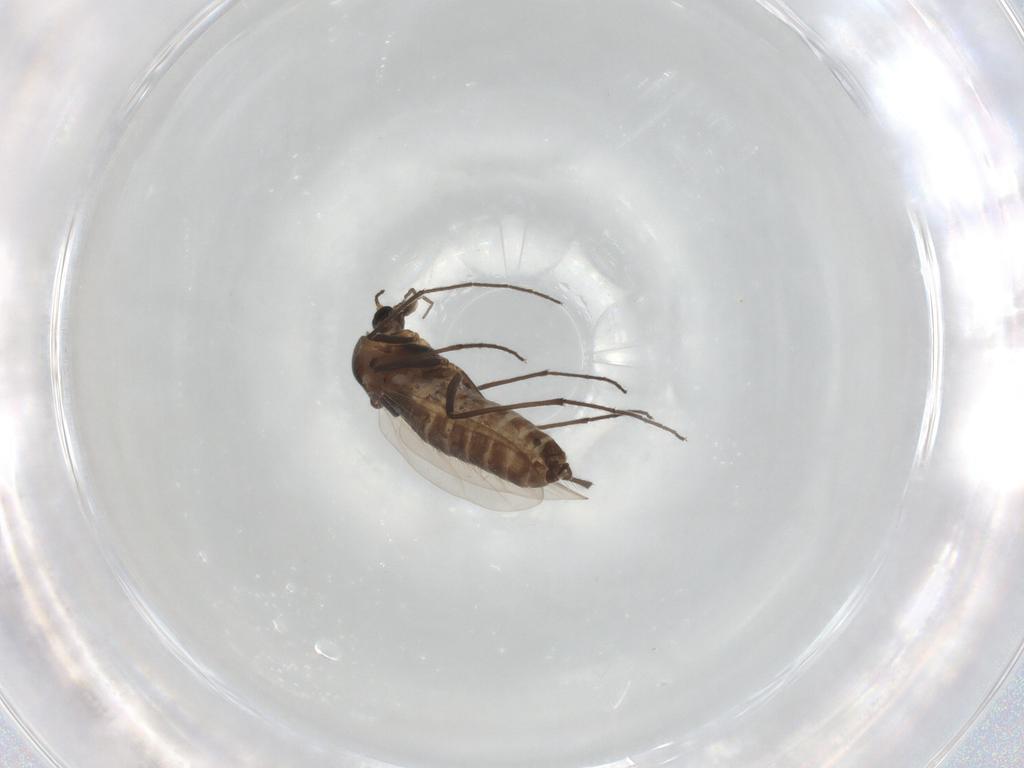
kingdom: Animalia
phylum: Arthropoda
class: Insecta
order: Diptera
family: Chironomidae
